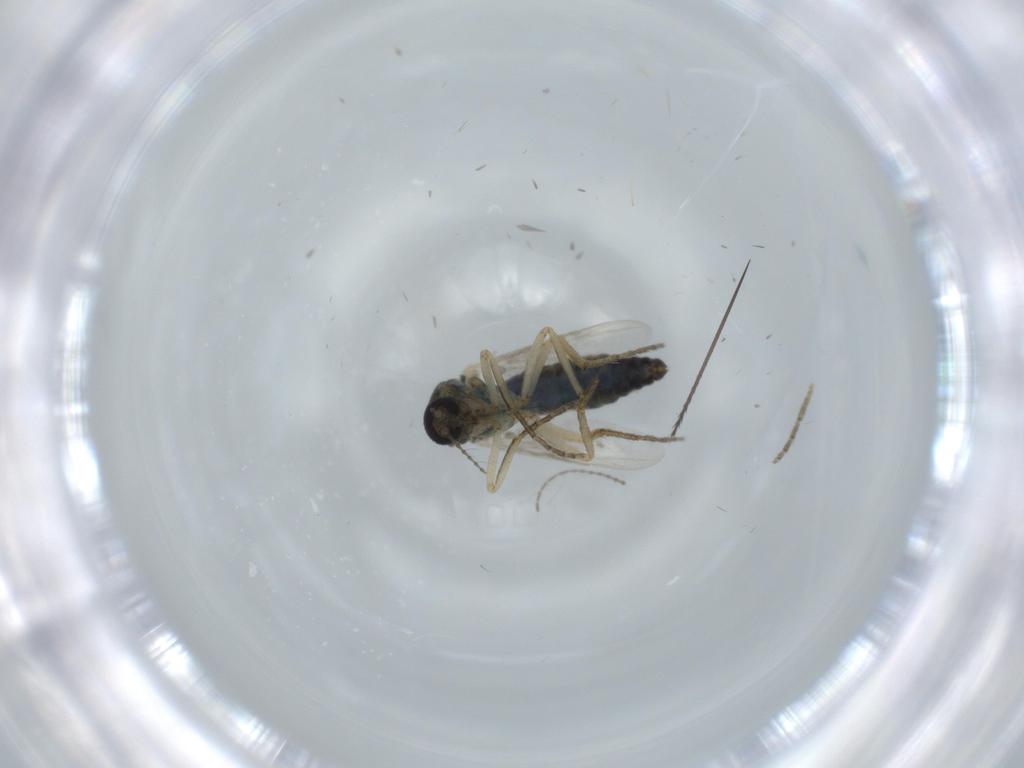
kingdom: Animalia
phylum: Arthropoda
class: Insecta
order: Diptera
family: Ceratopogonidae
